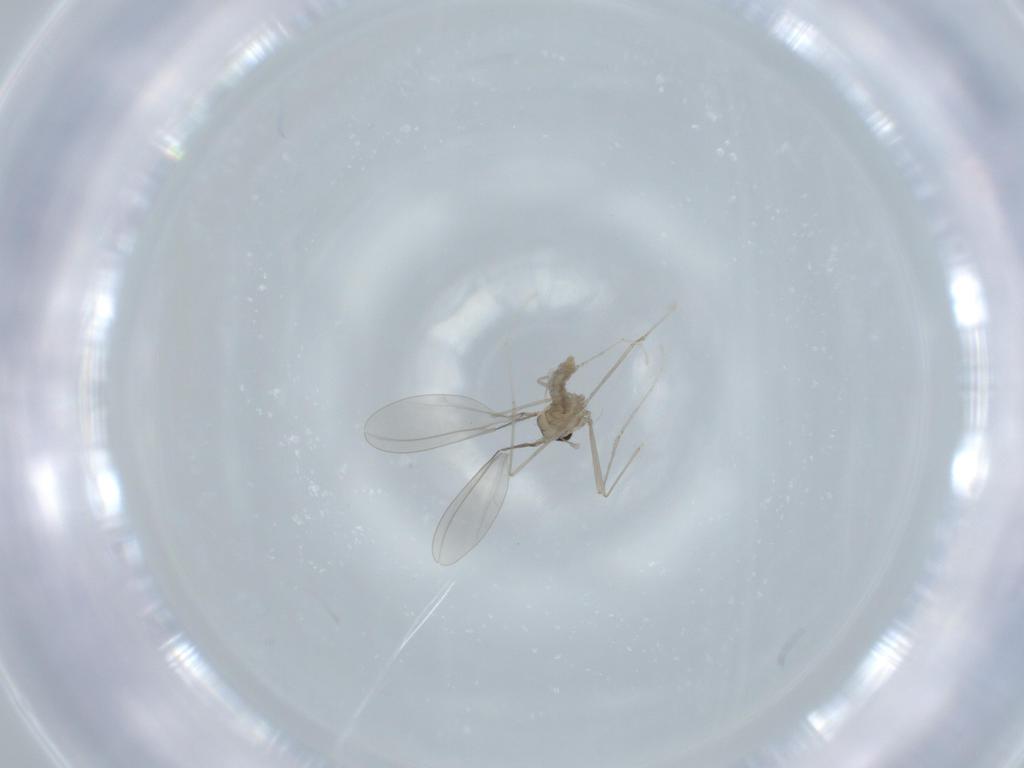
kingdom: Animalia
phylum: Arthropoda
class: Insecta
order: Diptera
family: Cecidomyiidae
